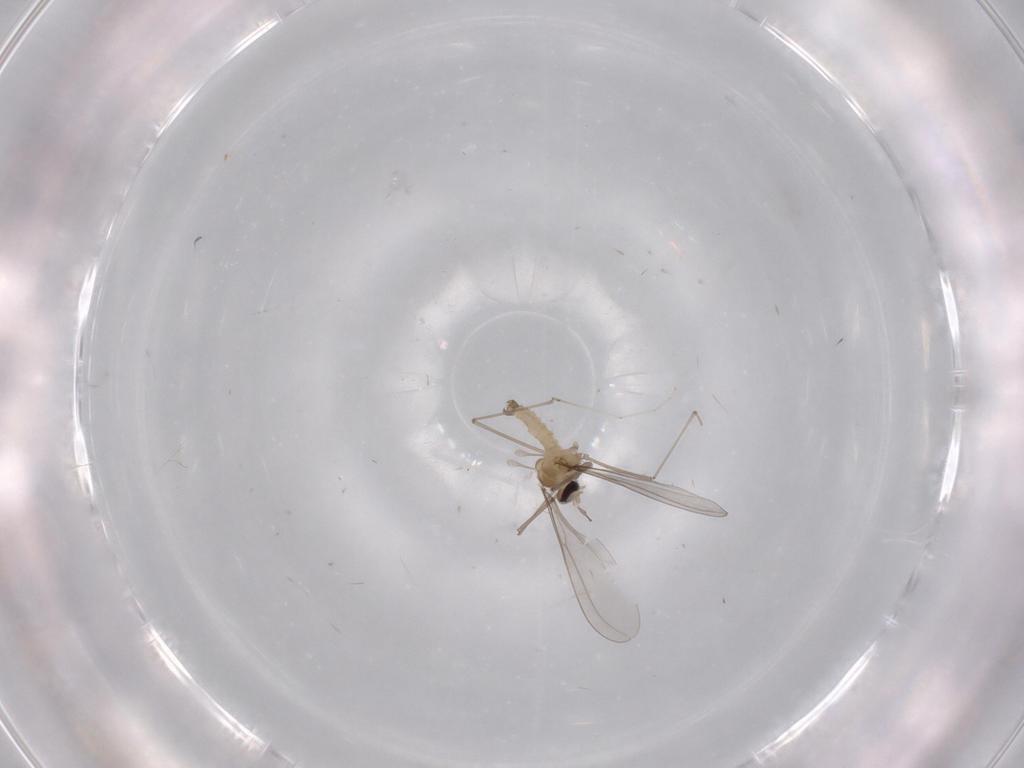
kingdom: Animalia
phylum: Arthropoda
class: Insecta
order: Diptera
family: Cecidomyiidae
